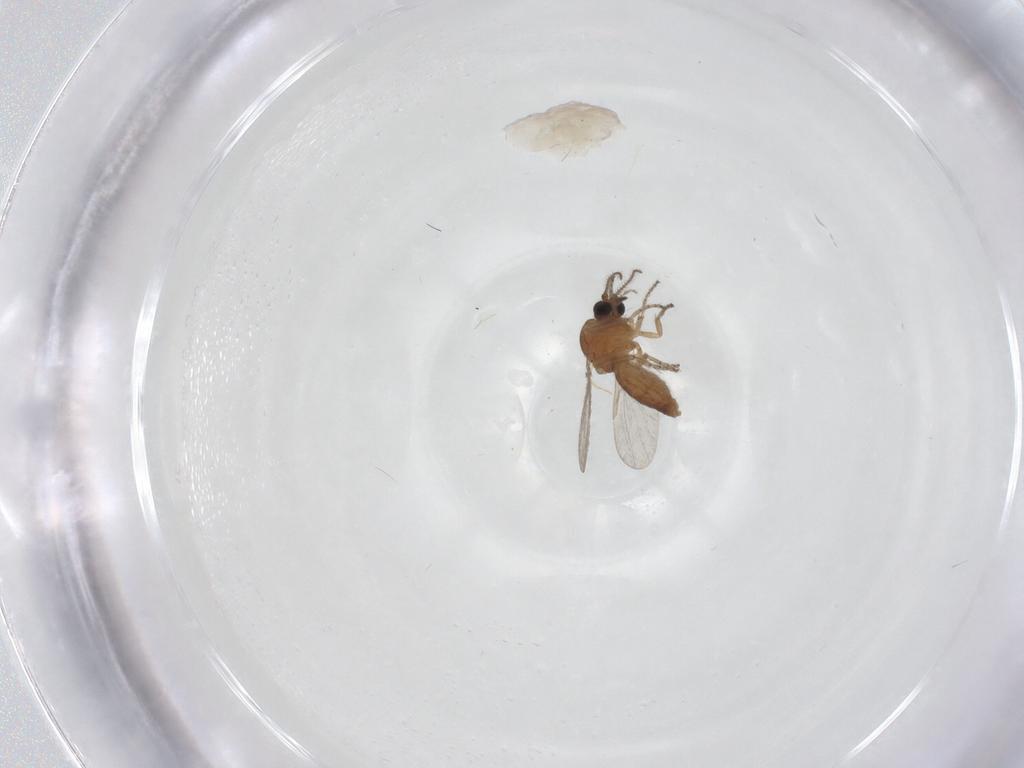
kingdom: Animalia
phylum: Arthropoda
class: Insecta
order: Diptera
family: Ceratopogonidae
